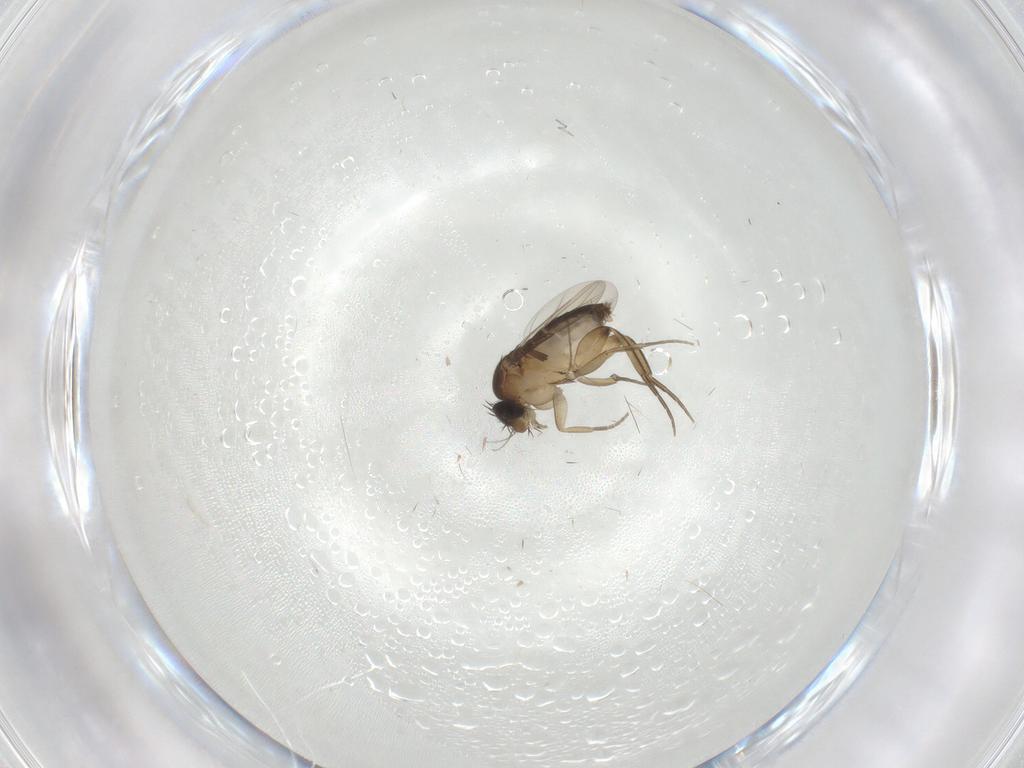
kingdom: Animalia
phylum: Arthropoda
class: Insecta
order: Diptera
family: Phoridae
